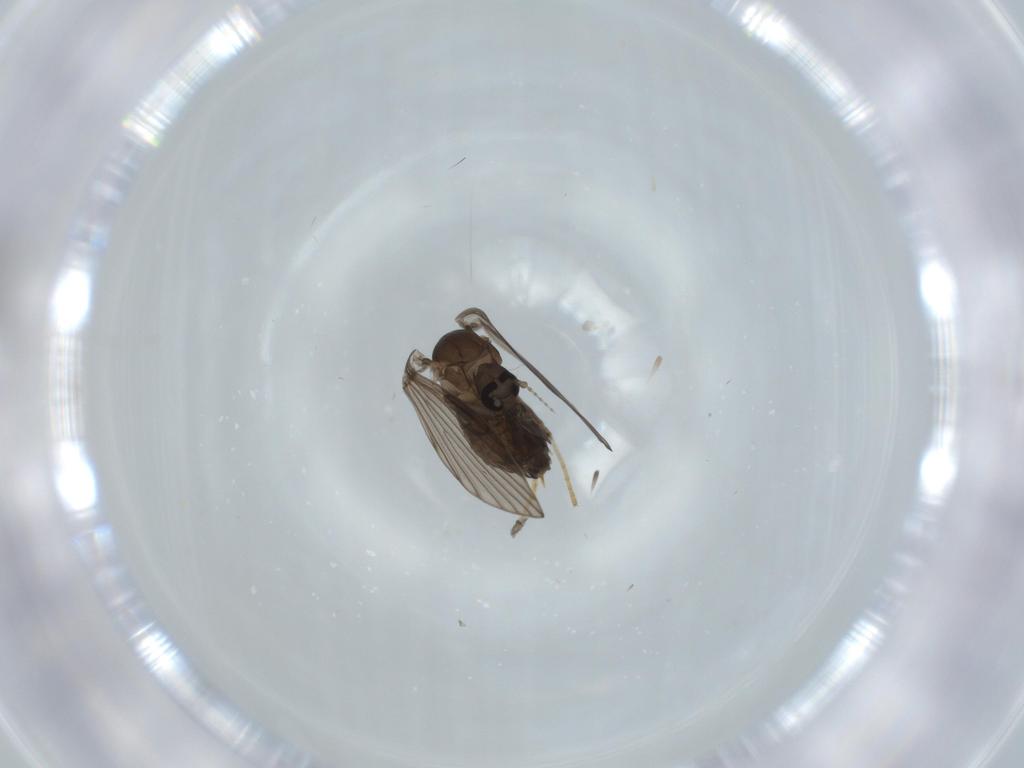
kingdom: Animalia
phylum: Arthropoda
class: Insecta
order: Diptera
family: Psychodidae
